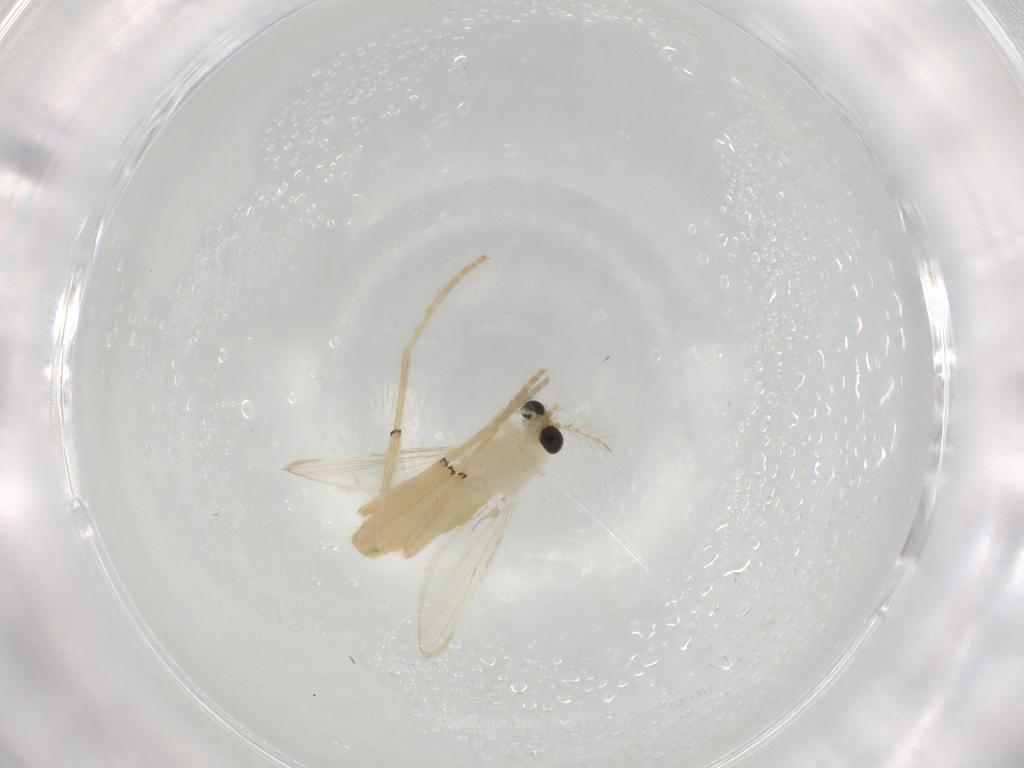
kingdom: Animalia
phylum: Arthropoda
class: Insecta
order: Diptera
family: Chironomidae
